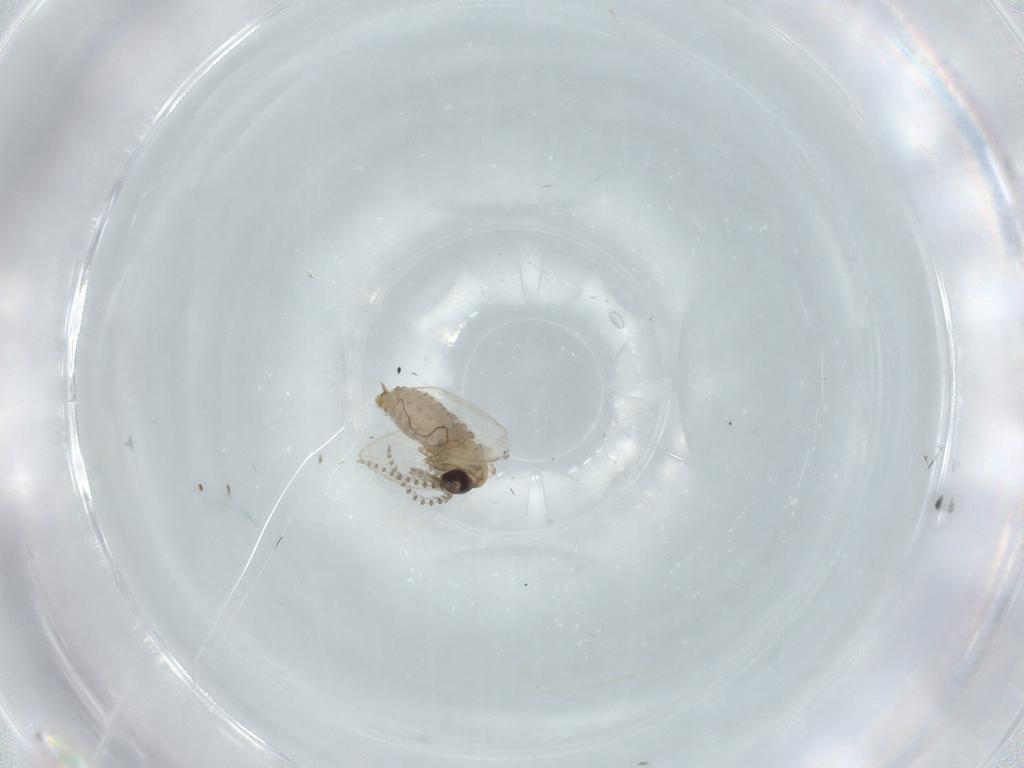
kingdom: Animalia
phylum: Arthropoda
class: Insecta
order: Diptera
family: Psychodidae
